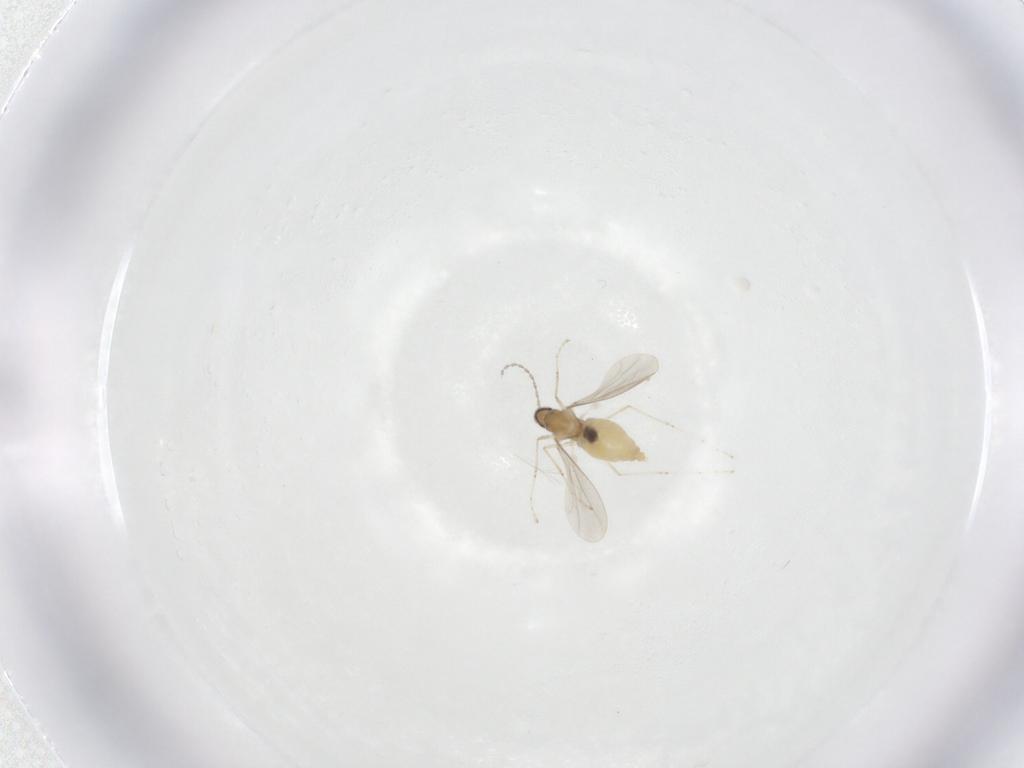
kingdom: Animalia
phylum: Arthropoda
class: Insecta
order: Diptera
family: Cecidomyiidae
